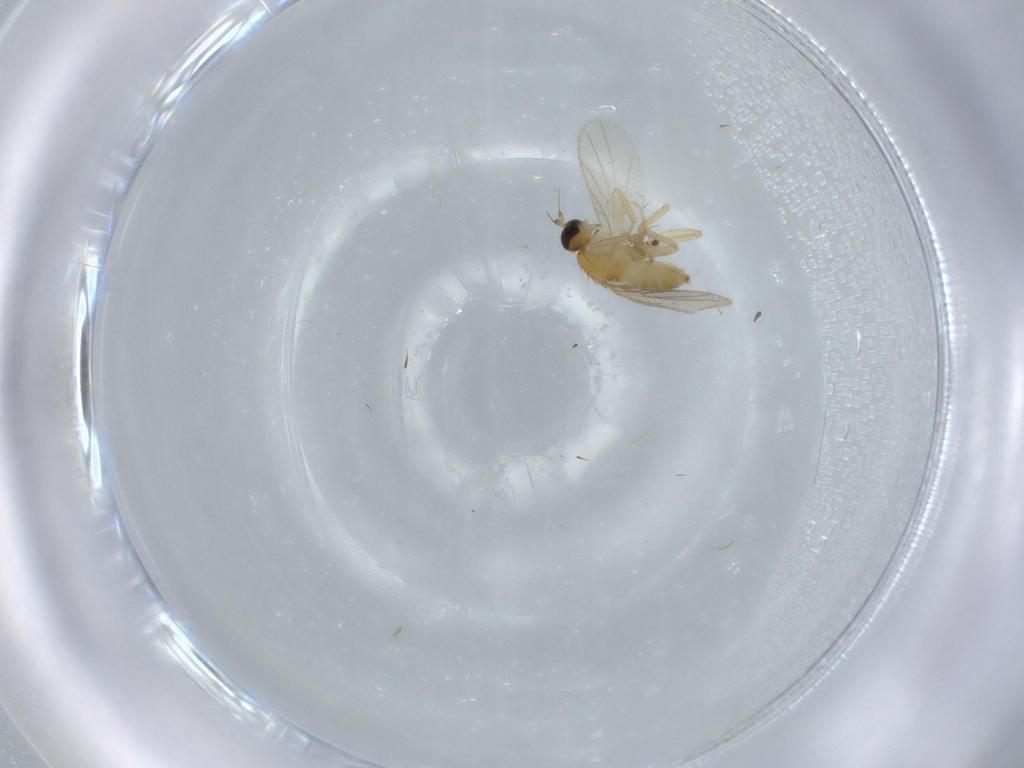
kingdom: Animalia
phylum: Arthropoda
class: Insecta
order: Diptera
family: Hybotidae
